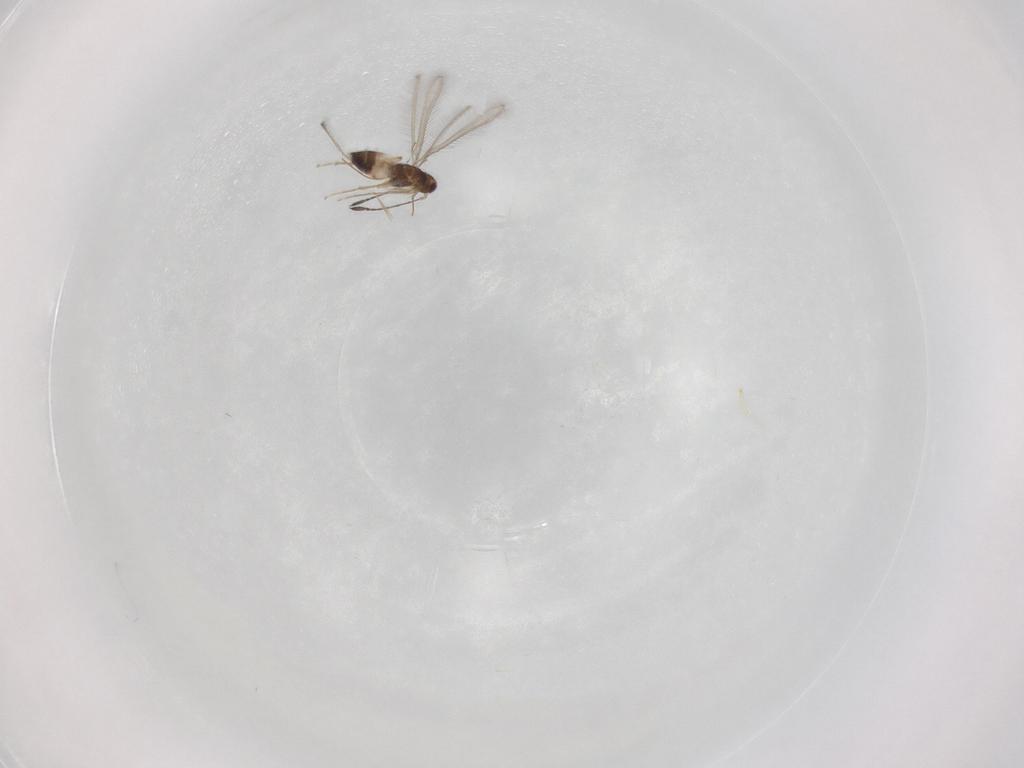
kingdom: Animalia
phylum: Arthropoda
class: Insecta
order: Hymenoptera
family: Mymaridae
